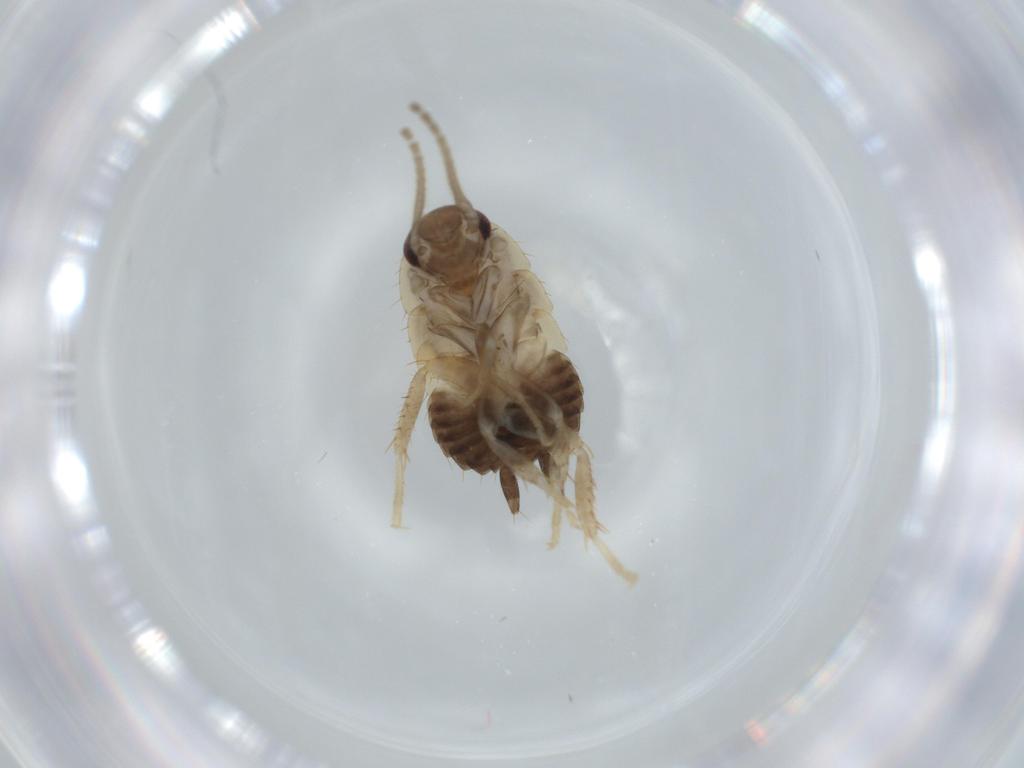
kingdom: Animalia
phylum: Arthropoda
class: Insecta
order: Blattodea
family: Ectobiidae
